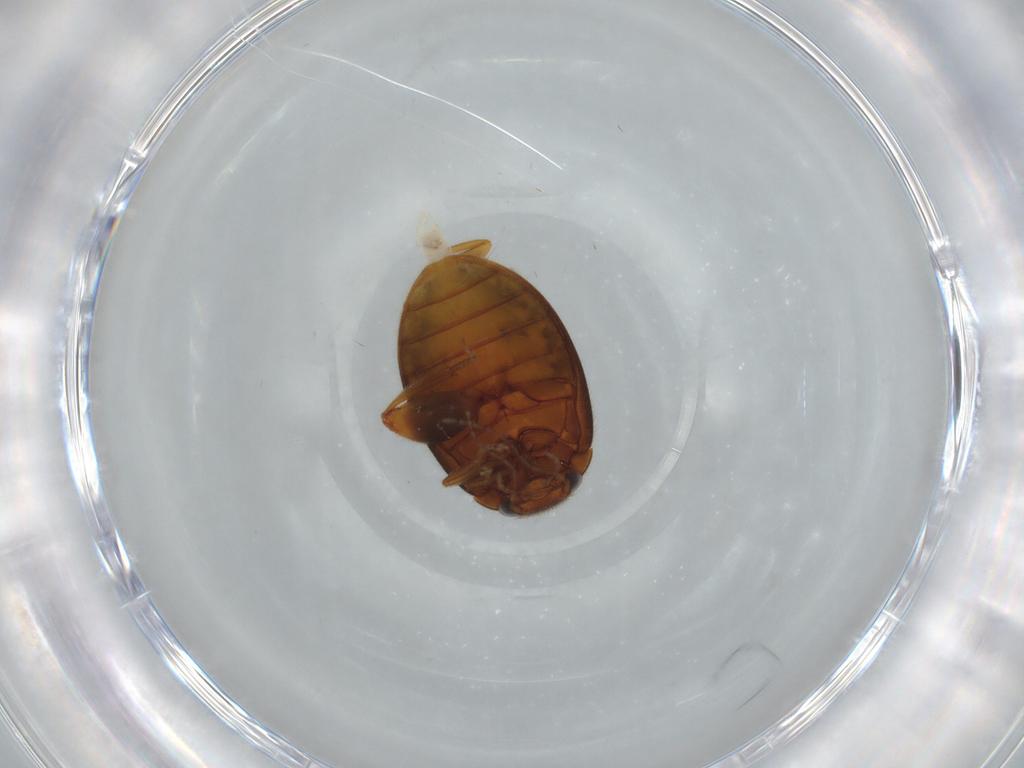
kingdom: Animalia
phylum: Arthropoda
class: Insecta
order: Coleoptera
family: Scirtidae
